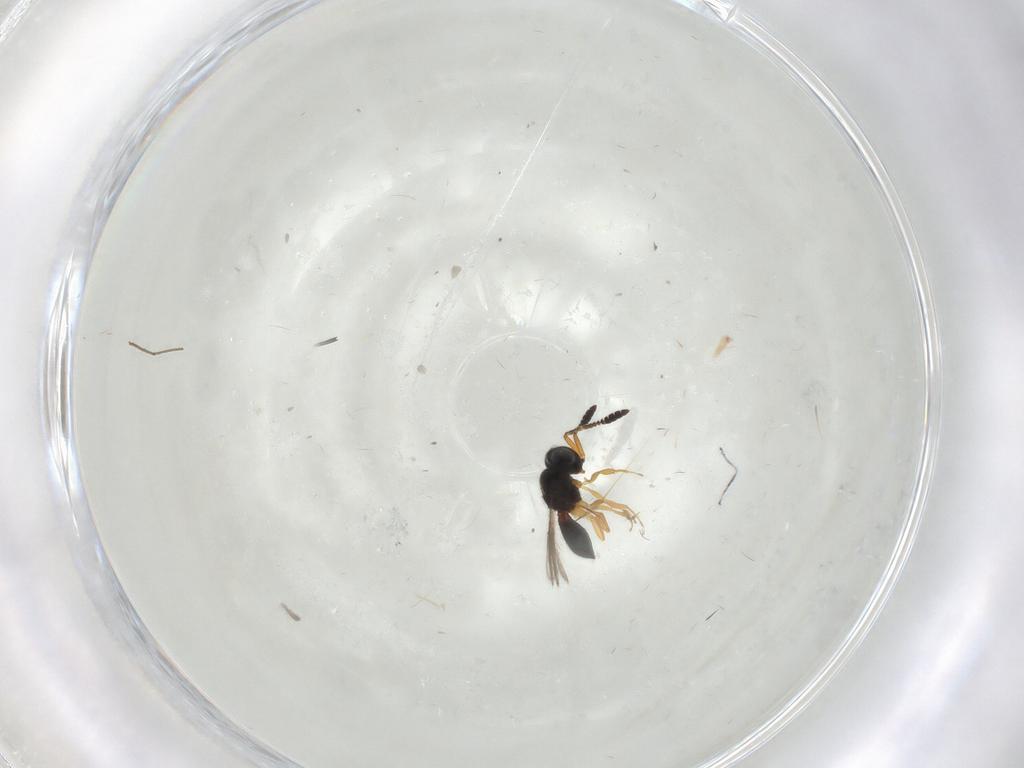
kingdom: Animalia
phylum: Arthropoda
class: Insecta
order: Hymenoptera
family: Scelionidae
